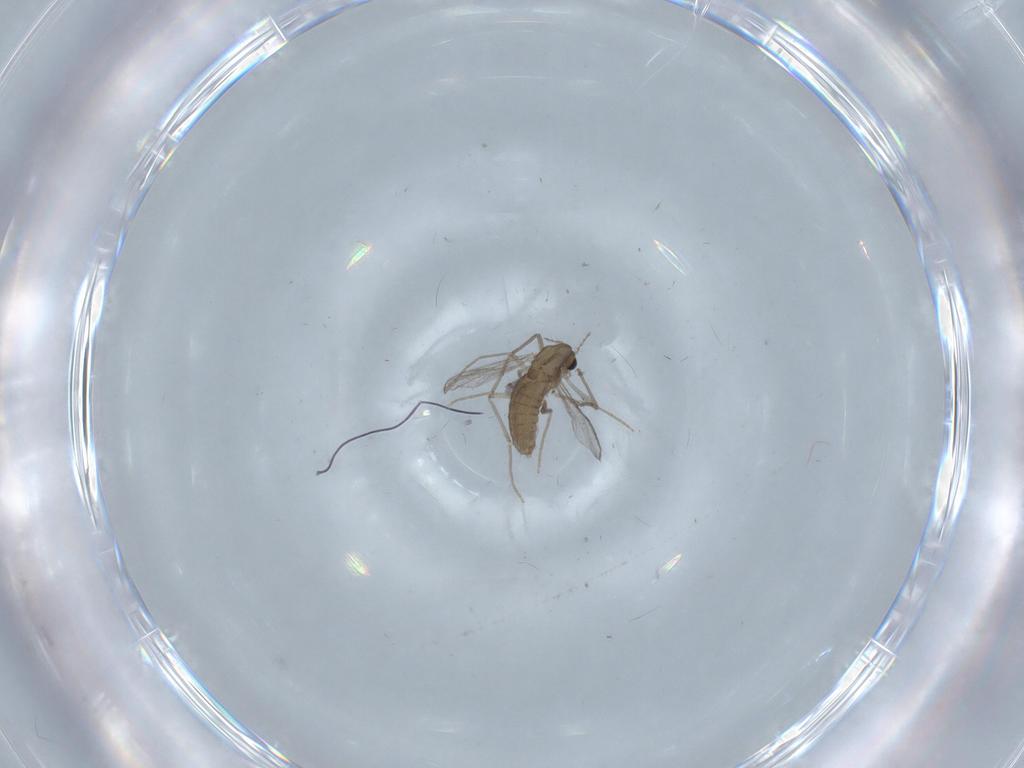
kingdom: Animalia
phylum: Arthropoda
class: Insecta
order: Diptera
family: Chironomidae
